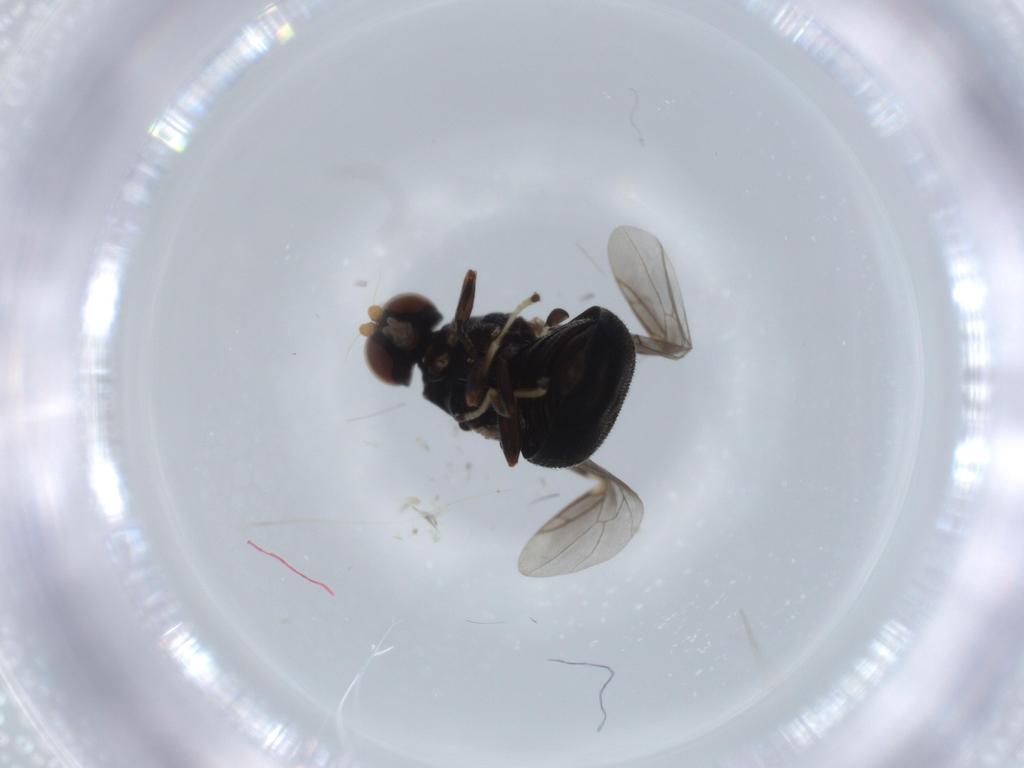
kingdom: Animalia
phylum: Arthropoda
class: Insecta
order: Diptera
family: Stratiomyidae
